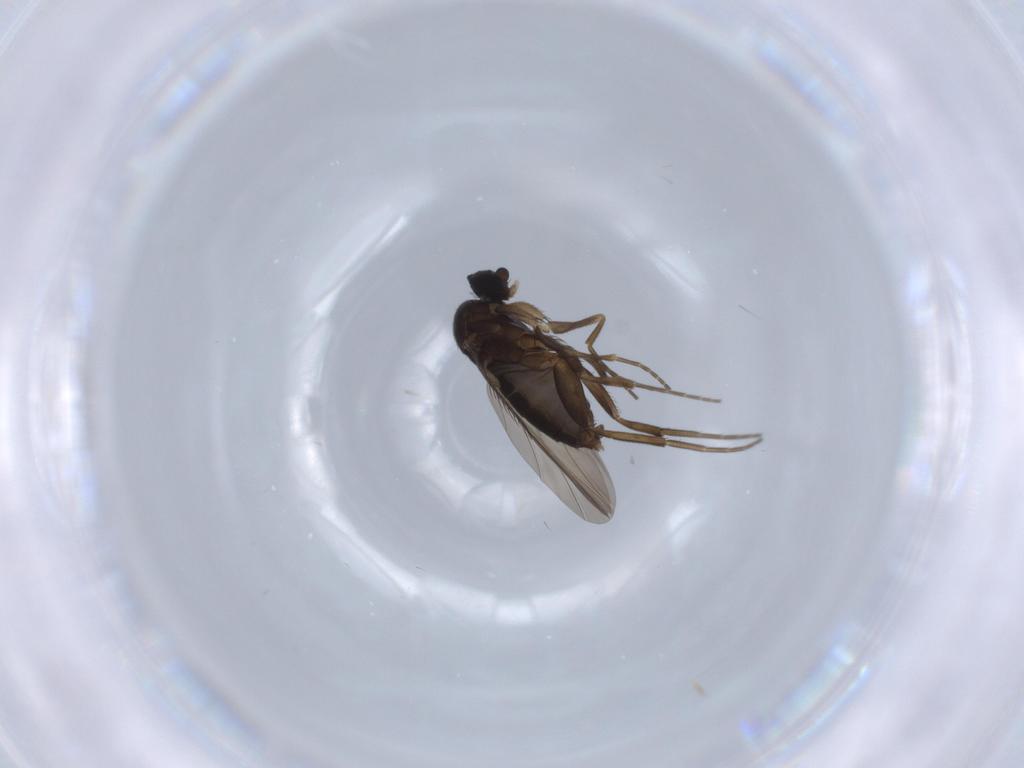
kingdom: Animalia
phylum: Arthropoda
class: Insecta
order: Diptera
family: Phoridae
